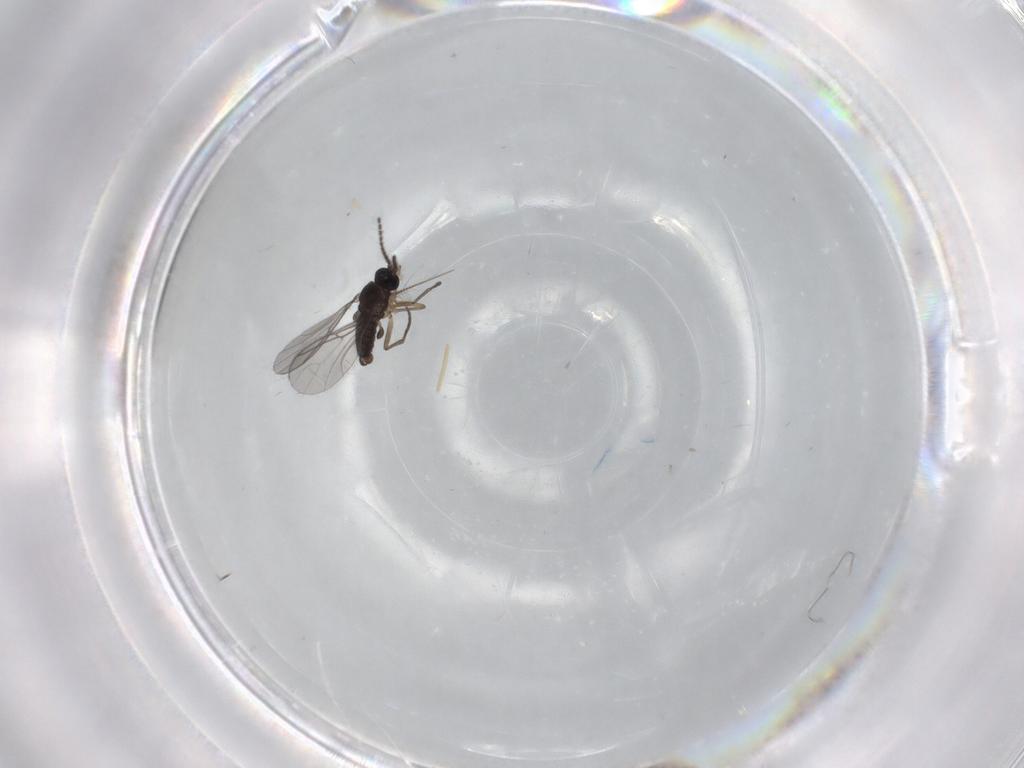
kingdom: Animalia
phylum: Arthropoda
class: Insecta
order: Diptera
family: Sciaridae
